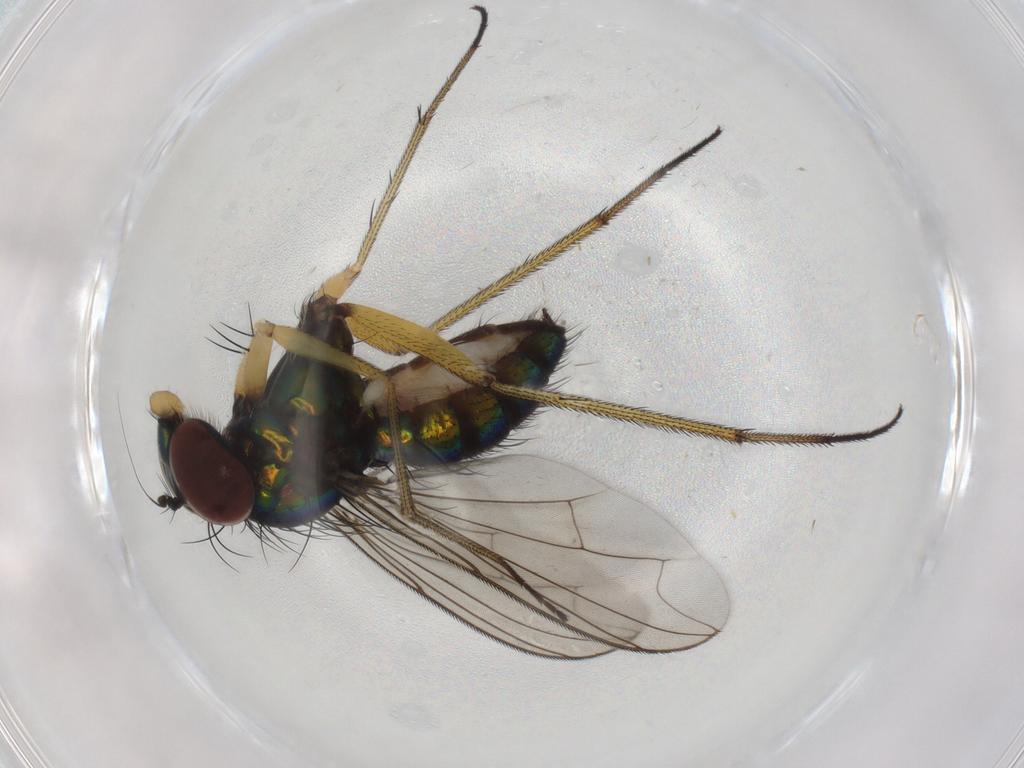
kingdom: Animalia
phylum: Arthropoda
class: Insecta
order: Diptera
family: Dolichopodidae
